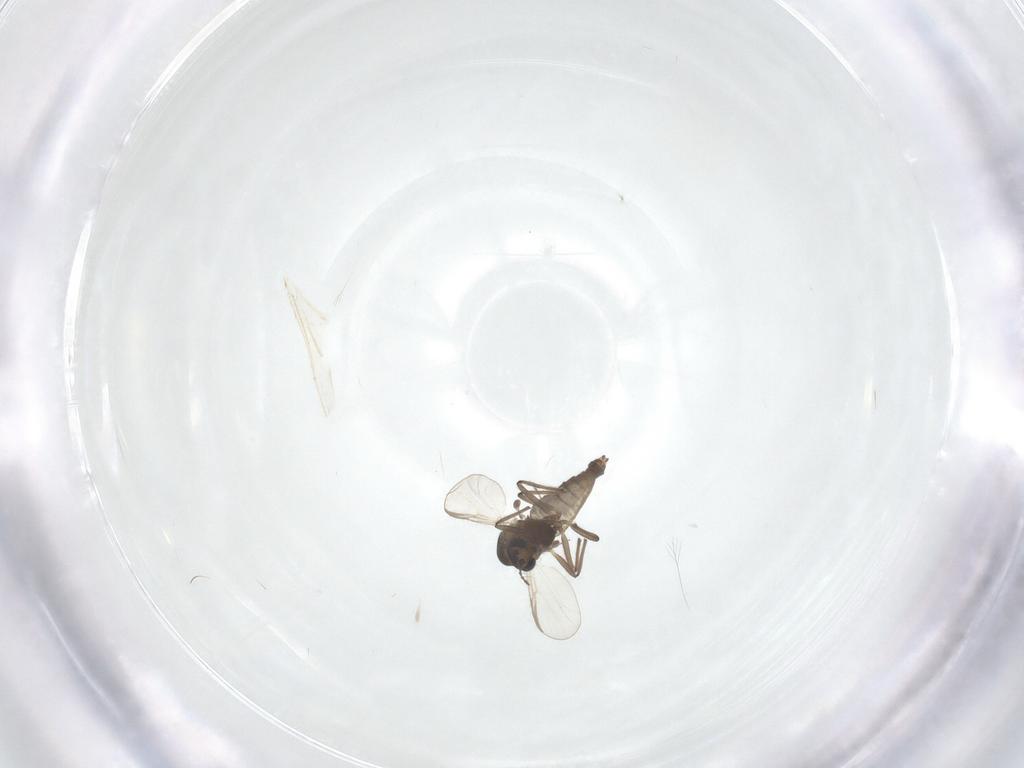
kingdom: Animalia
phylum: Arthropoda
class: Insecta
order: Diptera
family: Chironomidae
